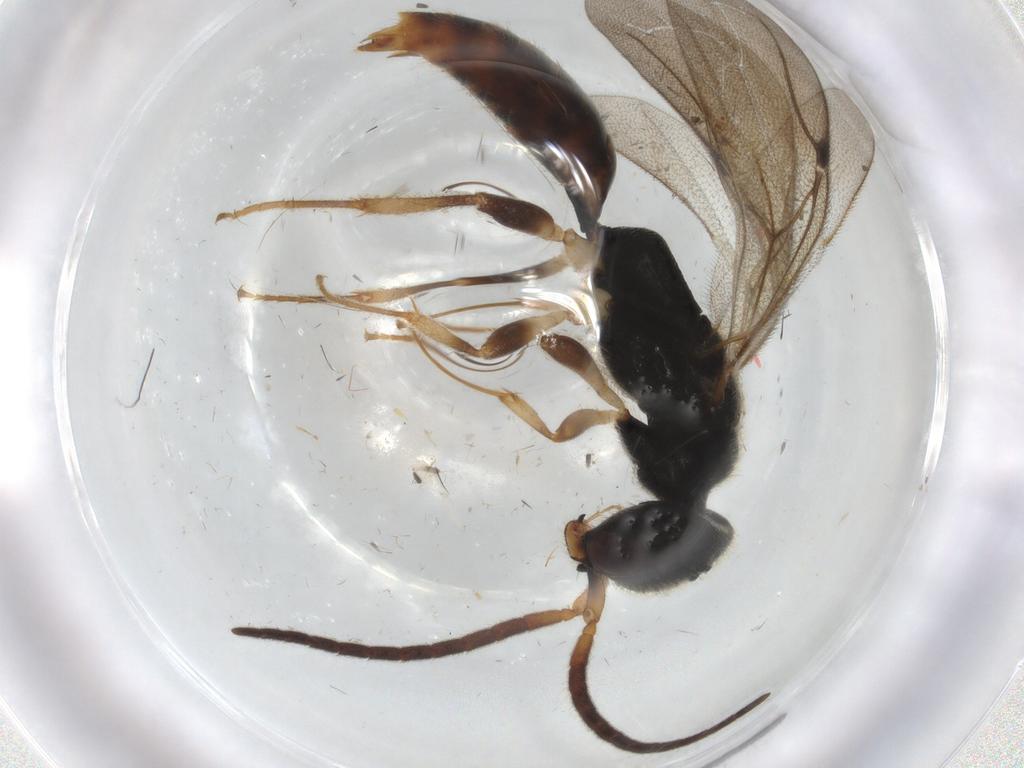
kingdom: Animalia
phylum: Arthropoda
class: Insecta
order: Hymenoptera
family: Bethylidae
